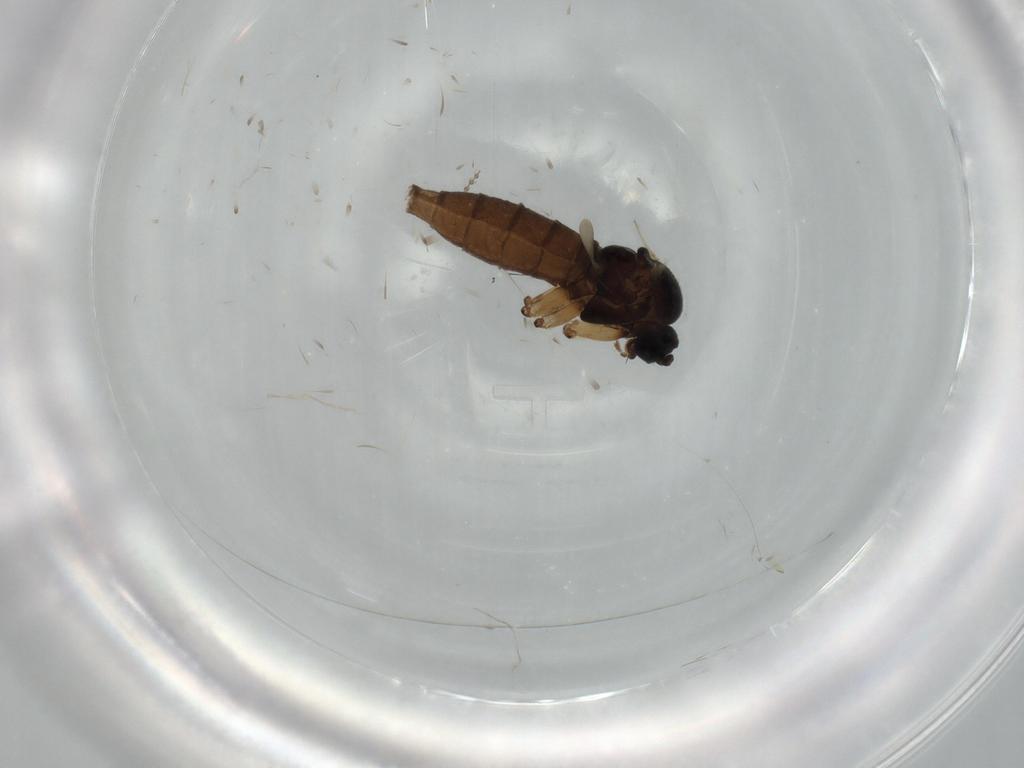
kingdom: Animalia
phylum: Arthropoda
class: Insecta
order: Diptera
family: Sciaridae
